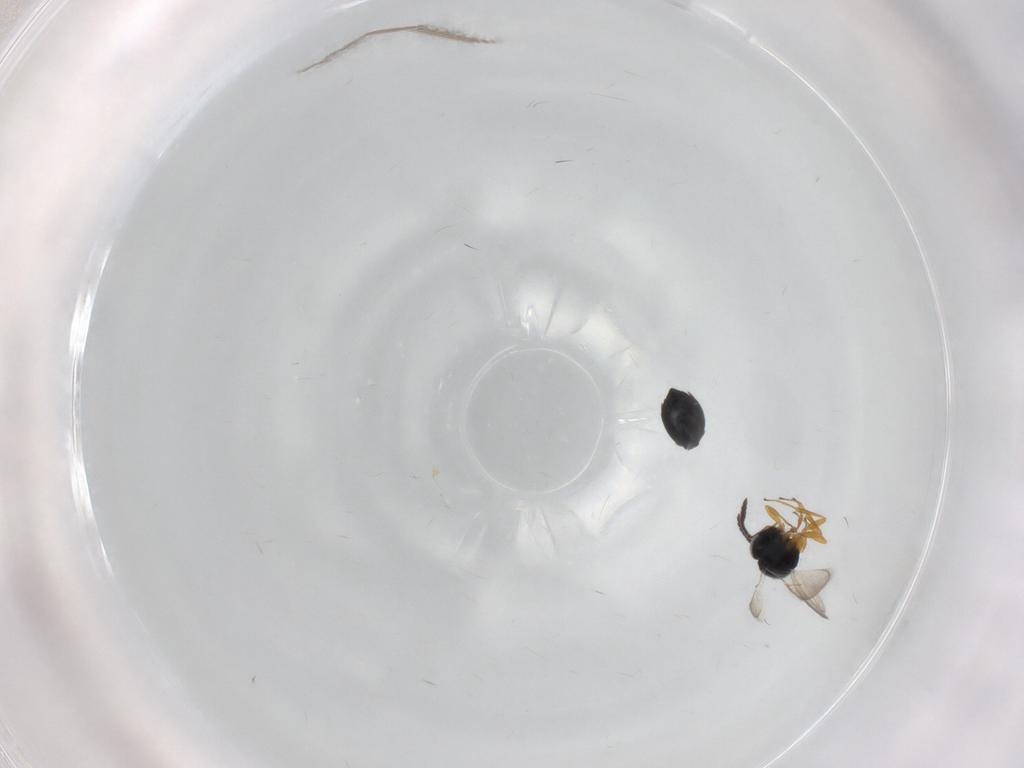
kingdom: Animalia
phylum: Arthropoda
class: Insecta
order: Hymenoptera
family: Scelionidae
